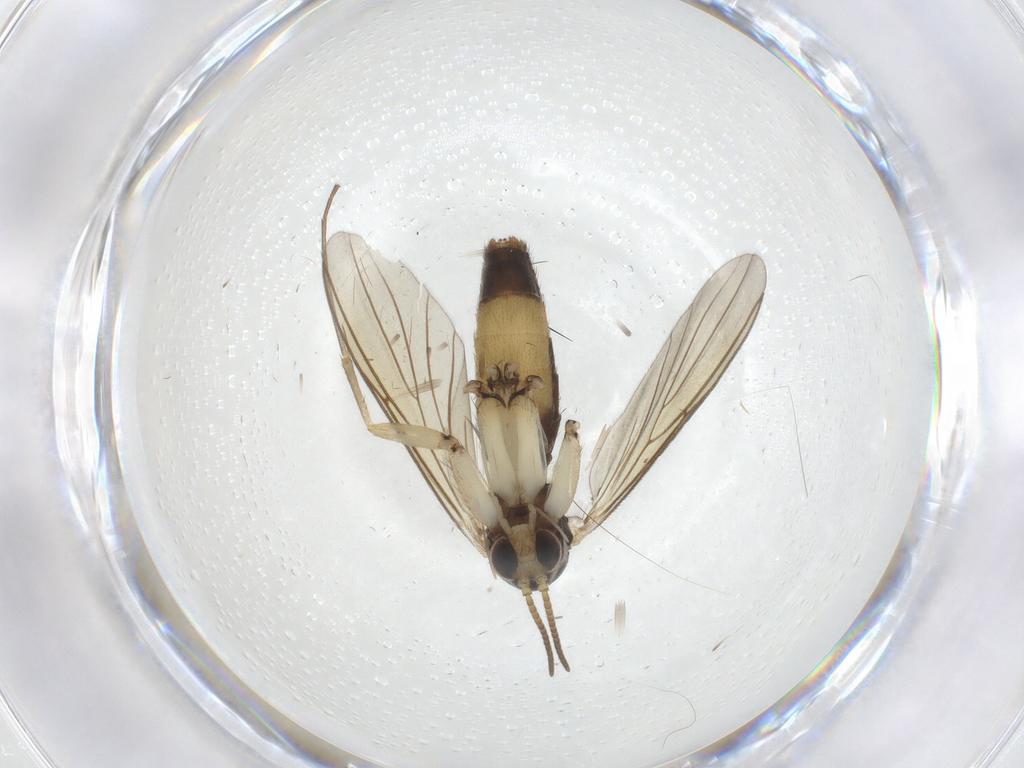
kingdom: Animalia
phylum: Arthropoda
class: Insecta
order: Diptera
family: Mycetophilidae
